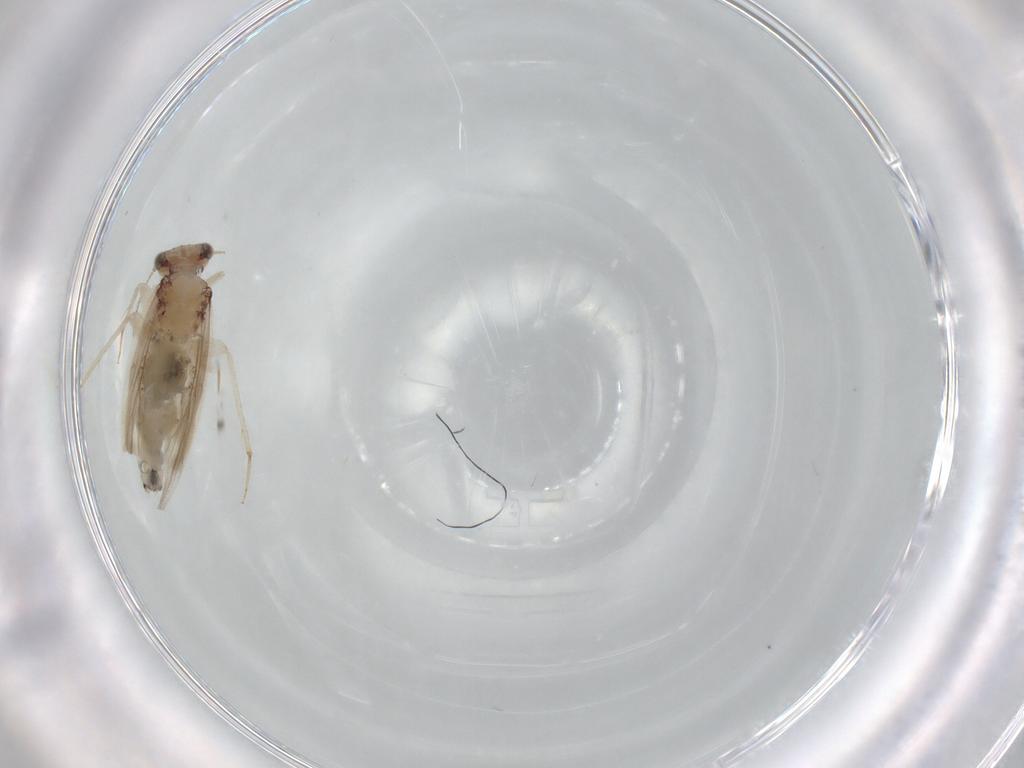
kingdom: Animalia
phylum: Arthropoda
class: Insecta
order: Psocodea
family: Lepidopsocidae
